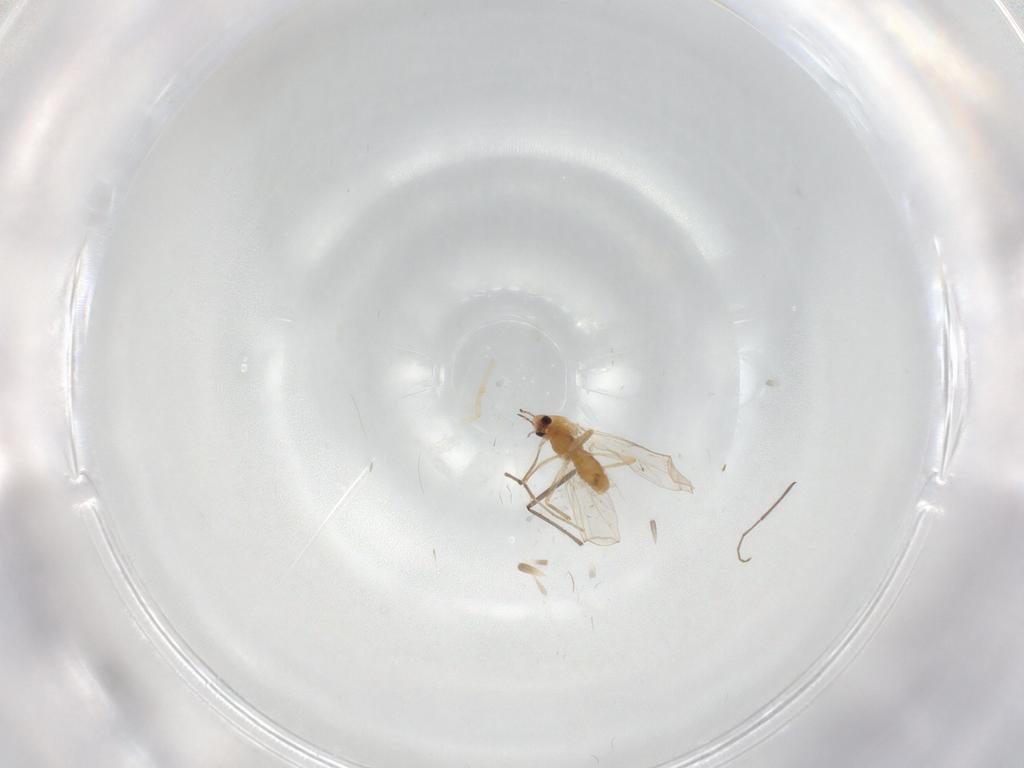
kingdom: Animalia
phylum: Arthropoda
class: Insecta
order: Diptera
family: Chironomidae
